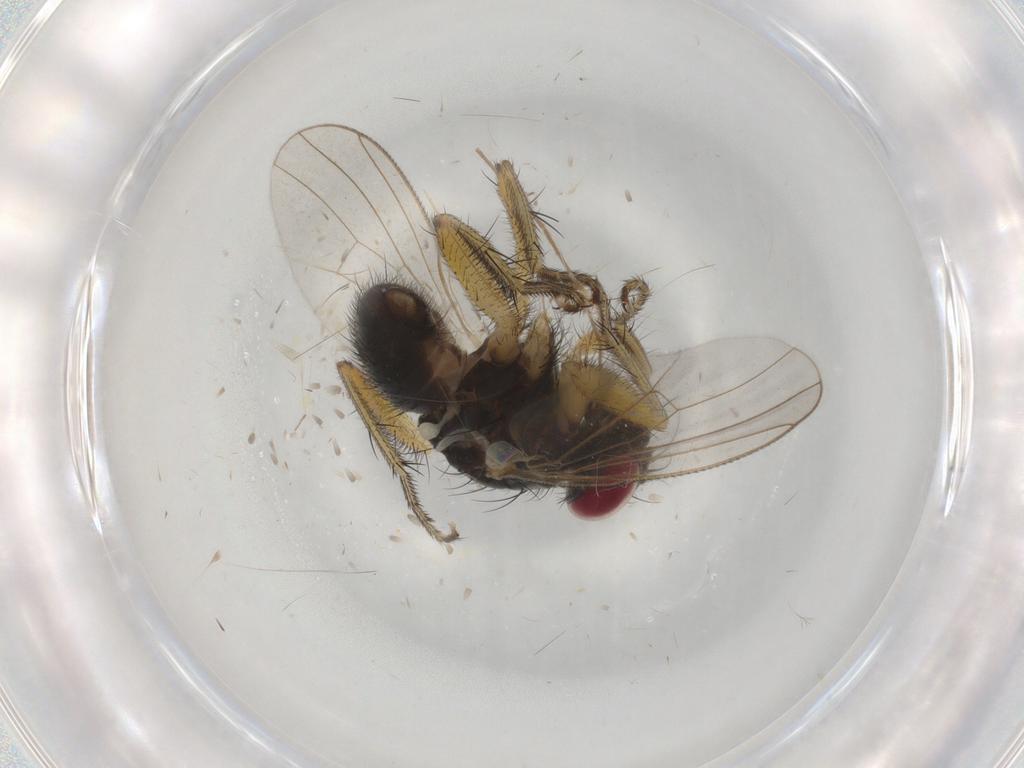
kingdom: Animalia
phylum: Arthropoda
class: Insecta
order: Diptera
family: Muscidae
